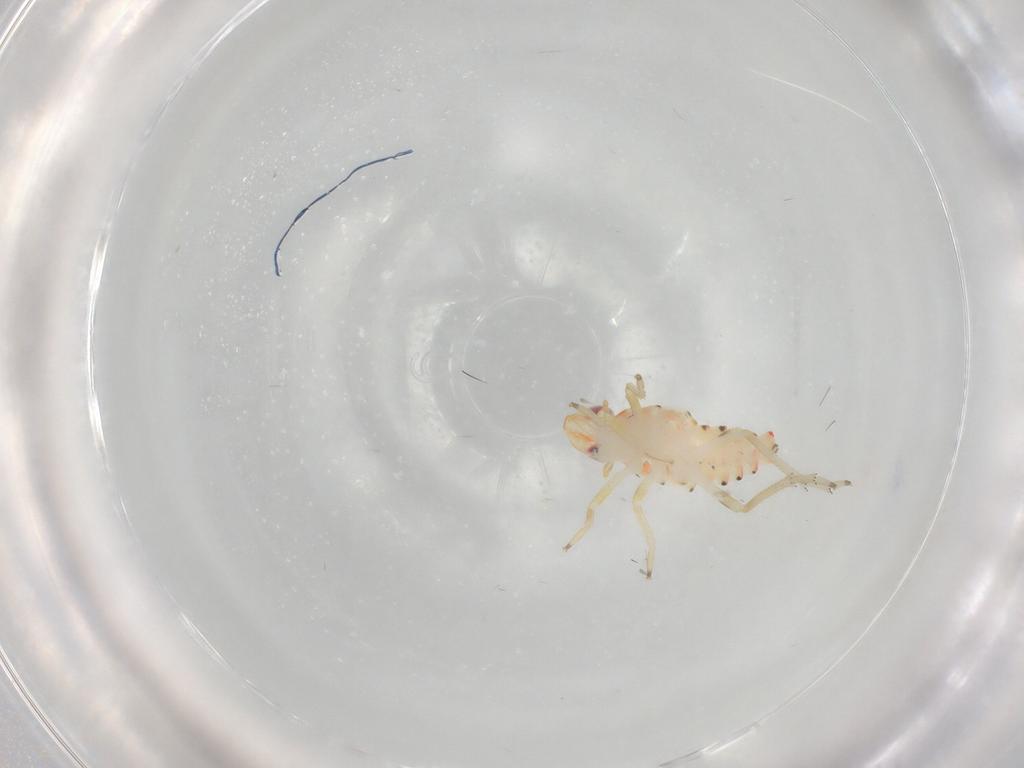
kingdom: Animalia
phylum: Arthropoda
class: Insecta
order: Hemiptera
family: Tropiduchidae
